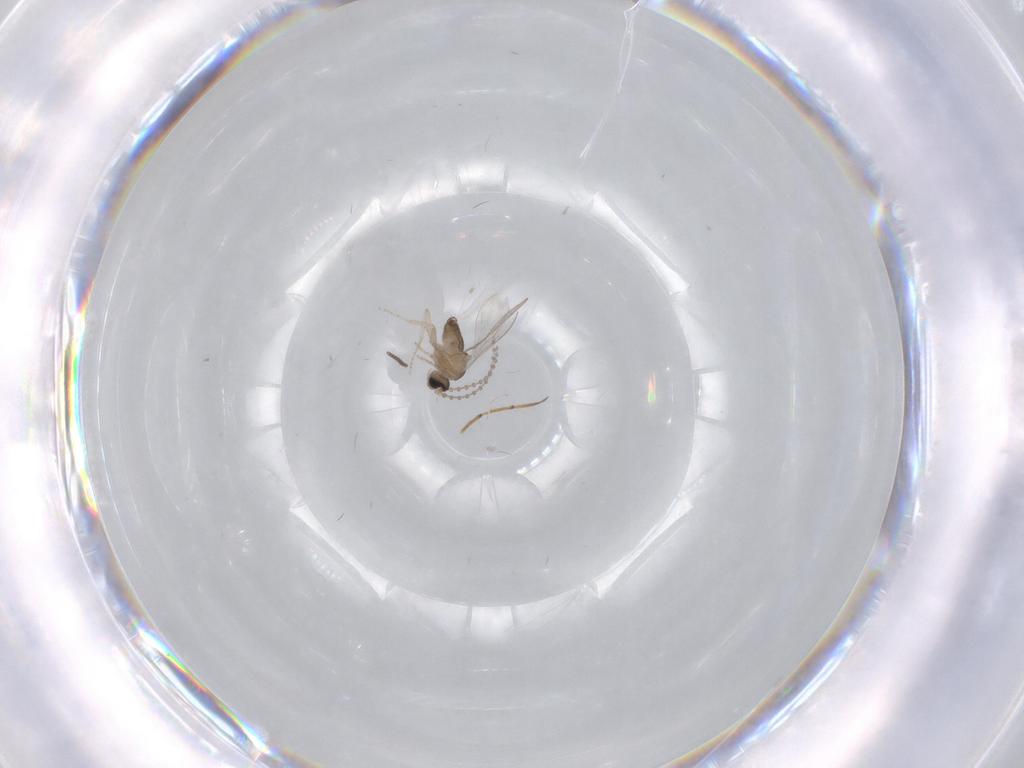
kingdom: Animalia
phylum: Arthropoda
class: Insecta
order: Diptera
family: Cecidomyiidae
